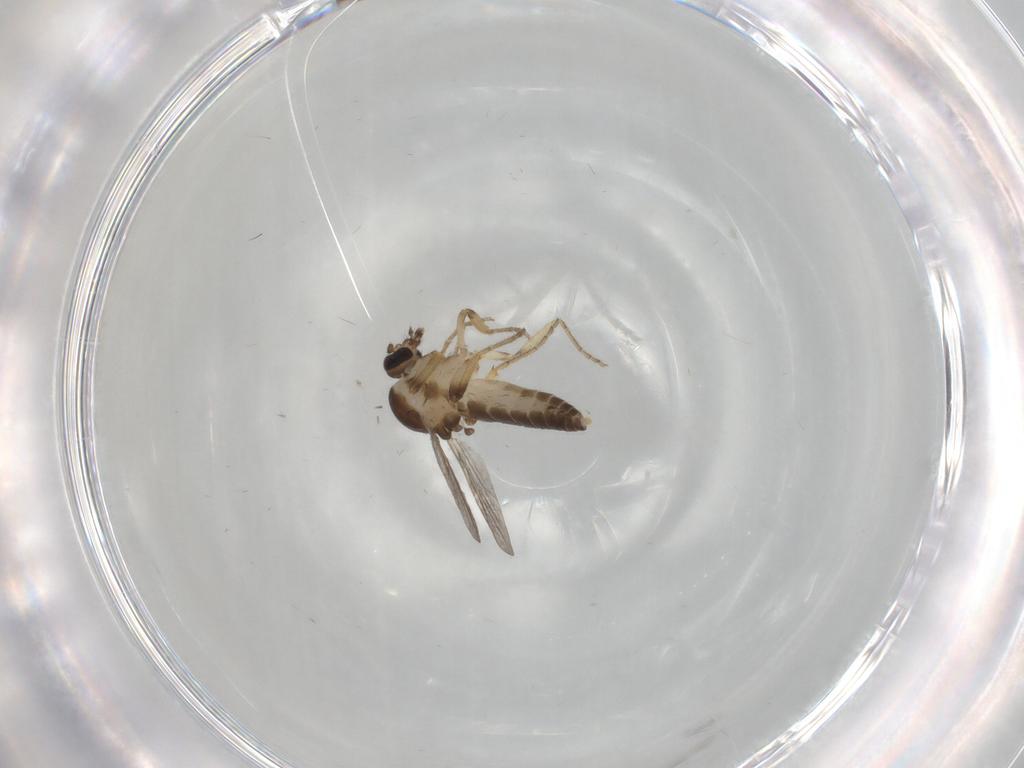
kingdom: Animalia
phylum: Arthropoda
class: Insecta
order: Diptera
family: Ceratopogonidae
